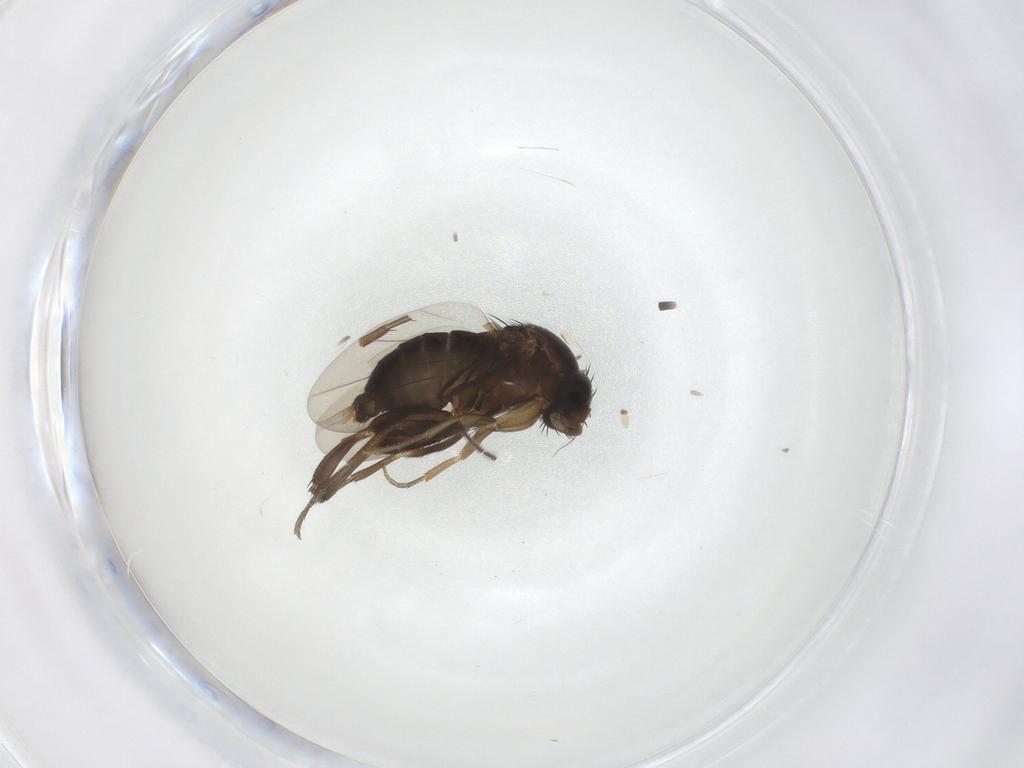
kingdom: Animalia
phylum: Arthropoda
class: Insecta
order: Diptera
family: Phoridae
